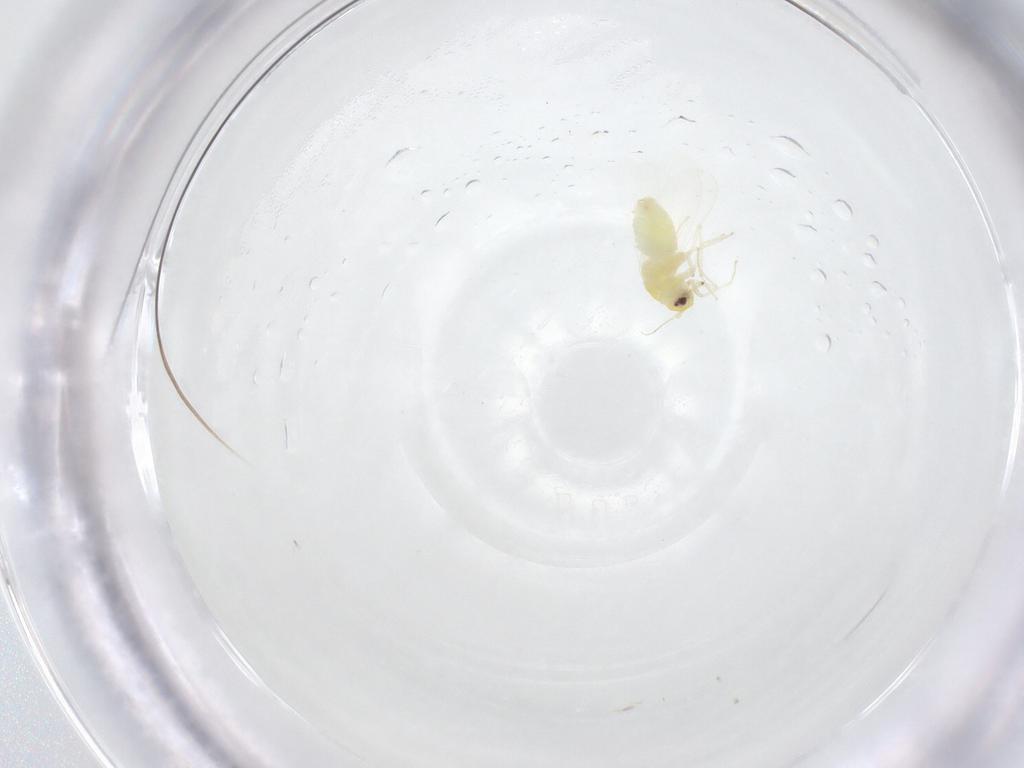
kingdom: Animalia
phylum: Arthropoda
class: Insecta
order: Hemiptera
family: Aleyrodidae
